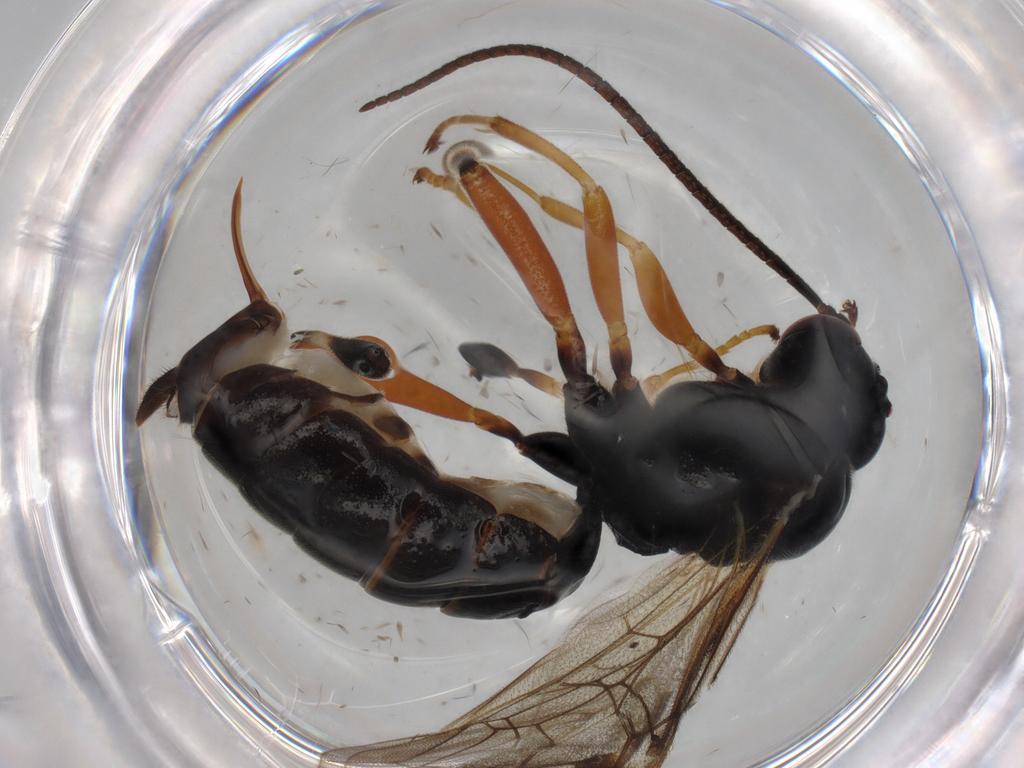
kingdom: Animalia
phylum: Arthropoda
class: Insecta
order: Hymenoptera
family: Ichneumonidae
